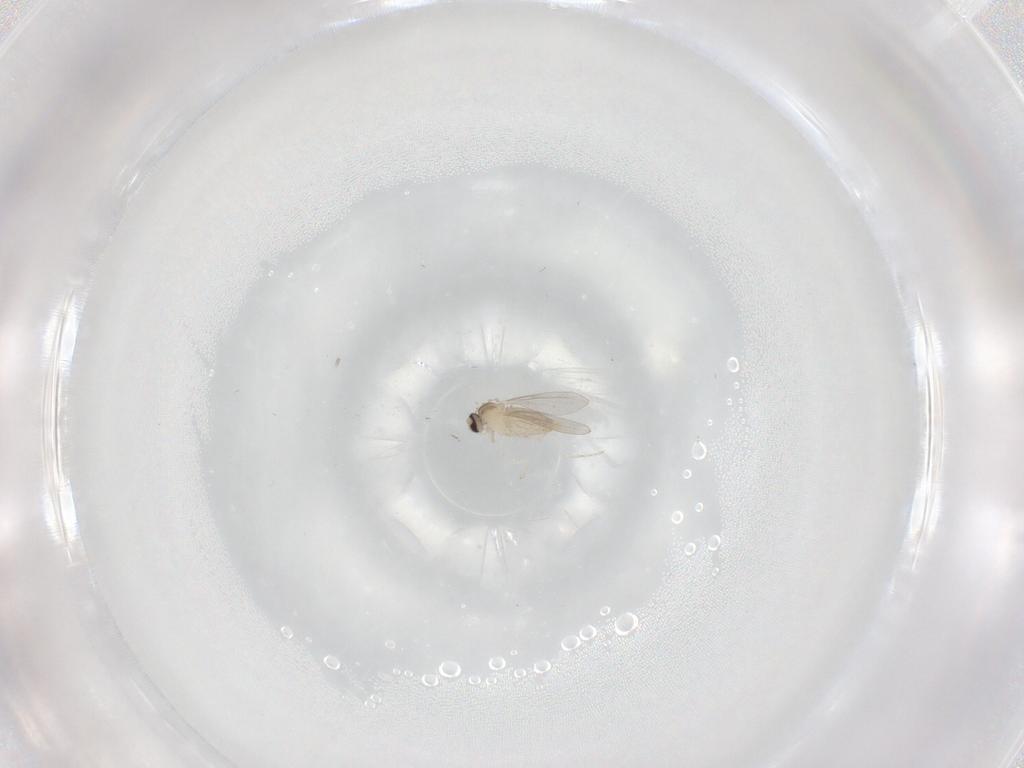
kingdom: Animalia
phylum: Arthropoda
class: Insecta
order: Diptera
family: Cecidomyiidae
